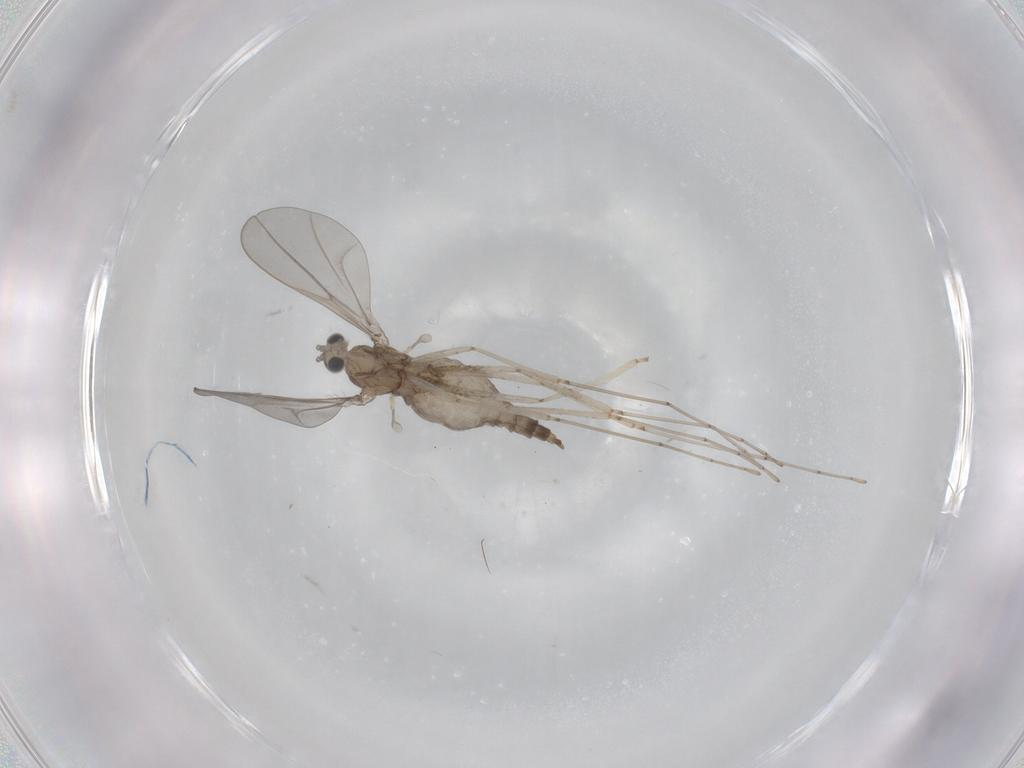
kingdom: Animalia
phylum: Arthropoda
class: Insecta
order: Diptera
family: Cecidomyiidae
